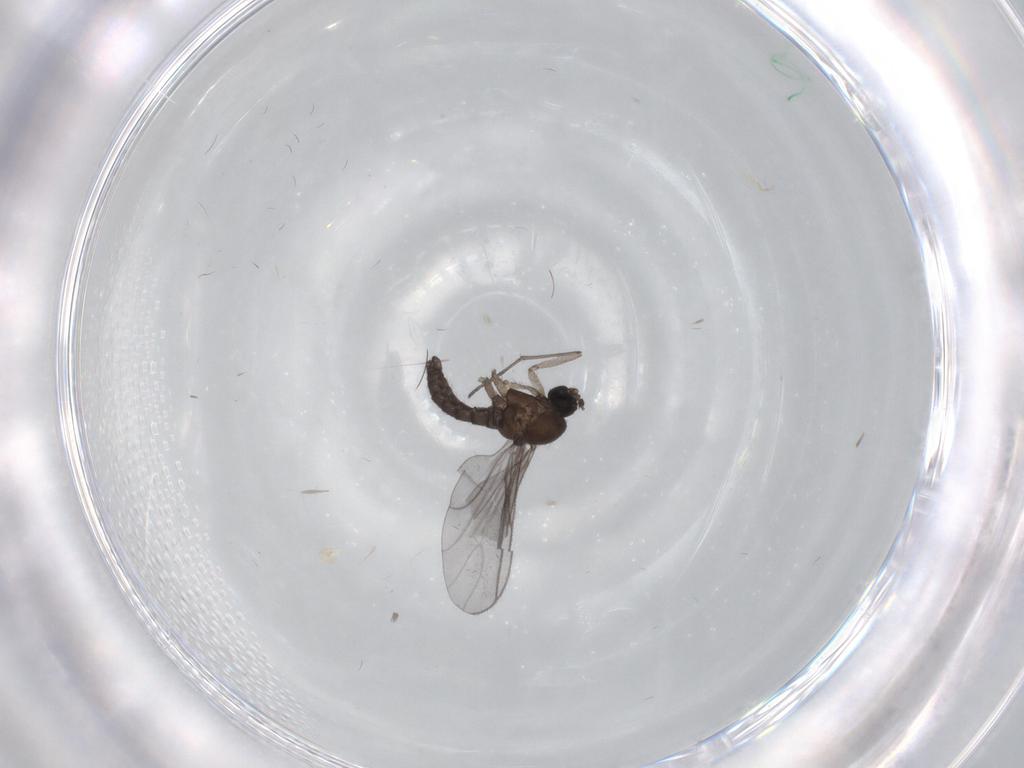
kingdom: Animalia
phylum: Arthropoda
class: Insecta
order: Diptera
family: Sciaridae
